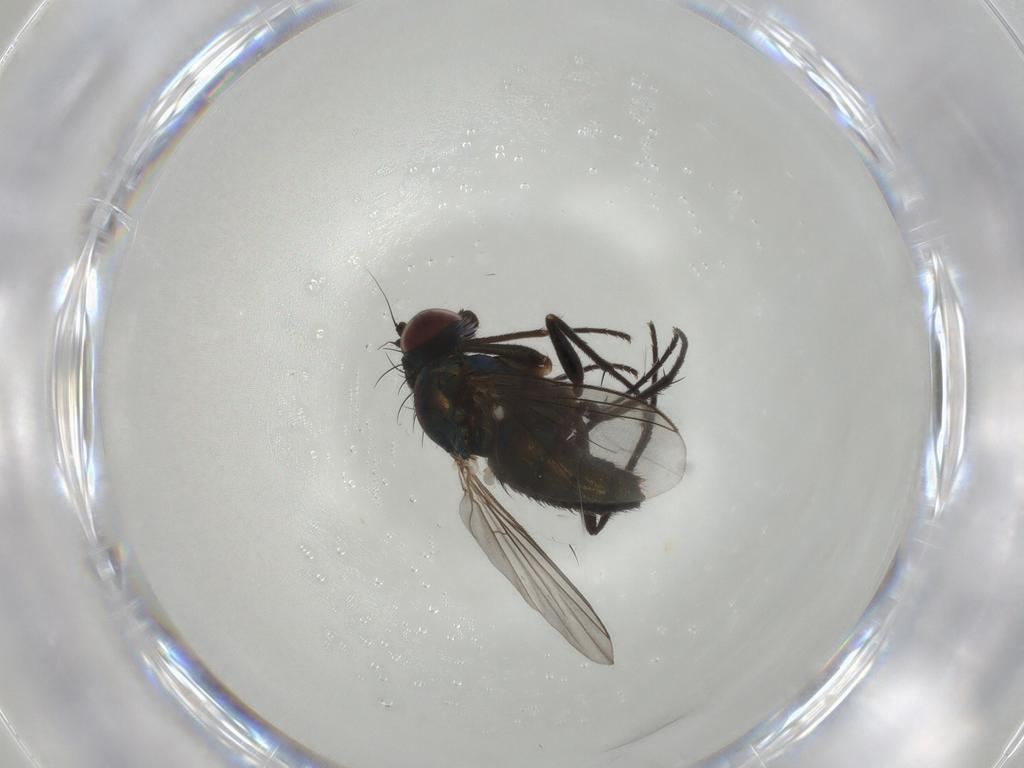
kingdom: Animalia
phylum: Arthropoda
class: Insecta
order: Diptera
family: Dolichopodidae
